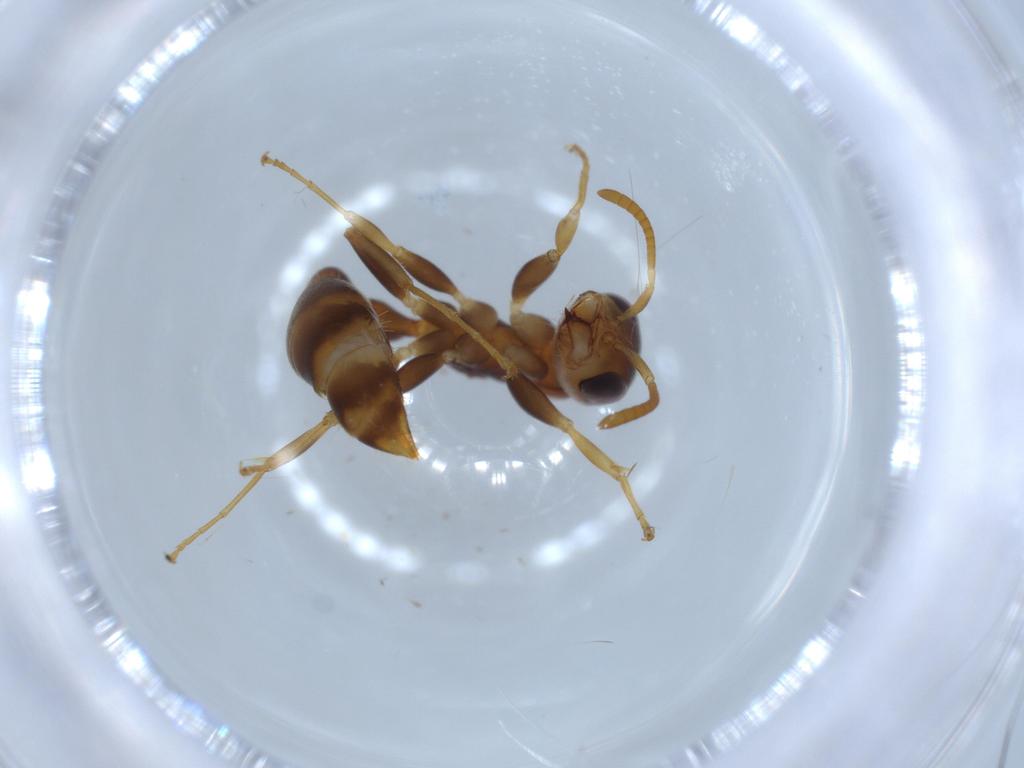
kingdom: Animalia
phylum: Arthropoda
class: Insecta
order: Hymenoptera
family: Formicidae
